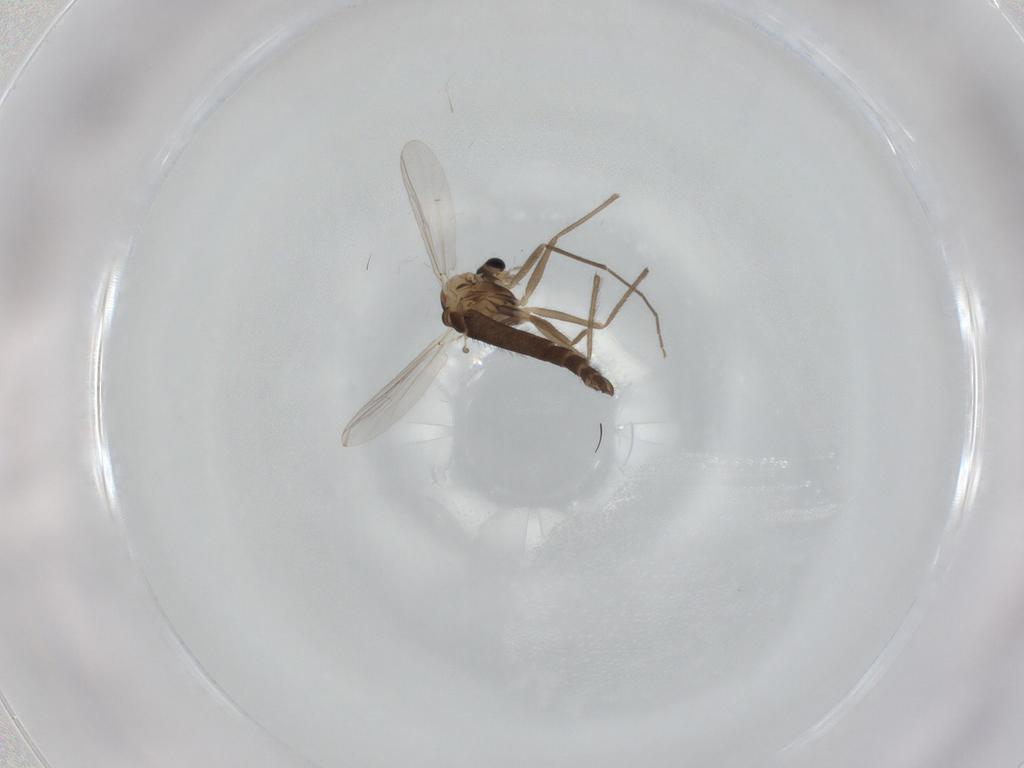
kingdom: Animalia
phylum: Arthropoda
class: Insecta
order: Diptera
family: Chironomidae
